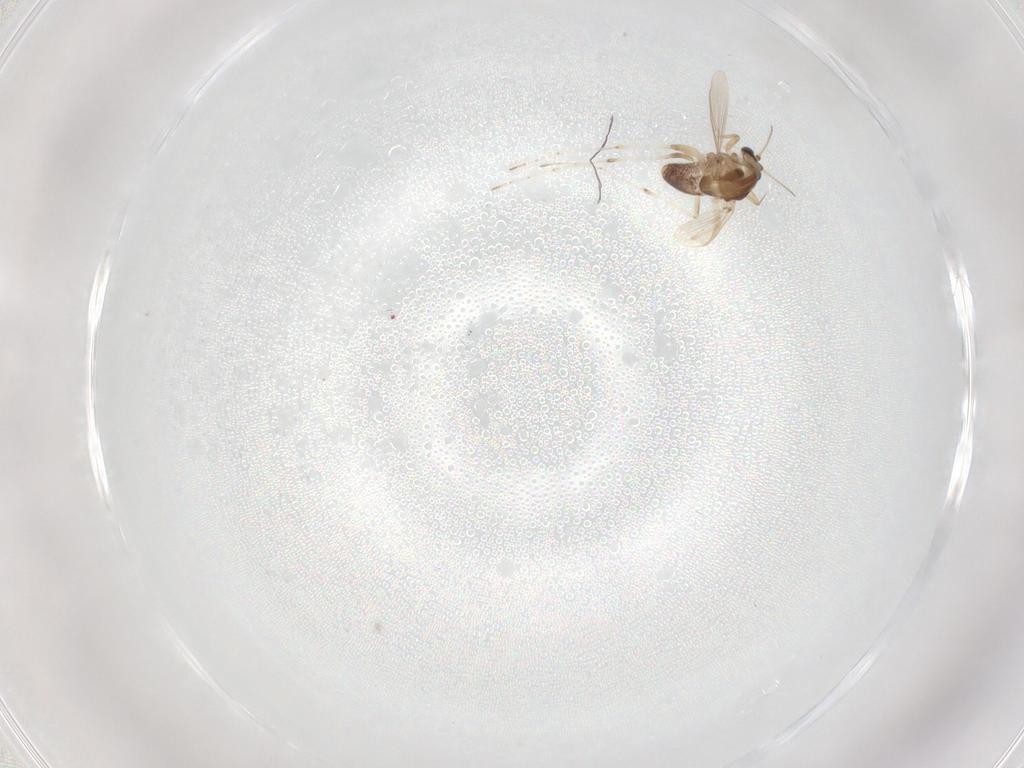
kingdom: Animalia
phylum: Arthropoda
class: Insecta
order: Diptera
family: Chironomidae
